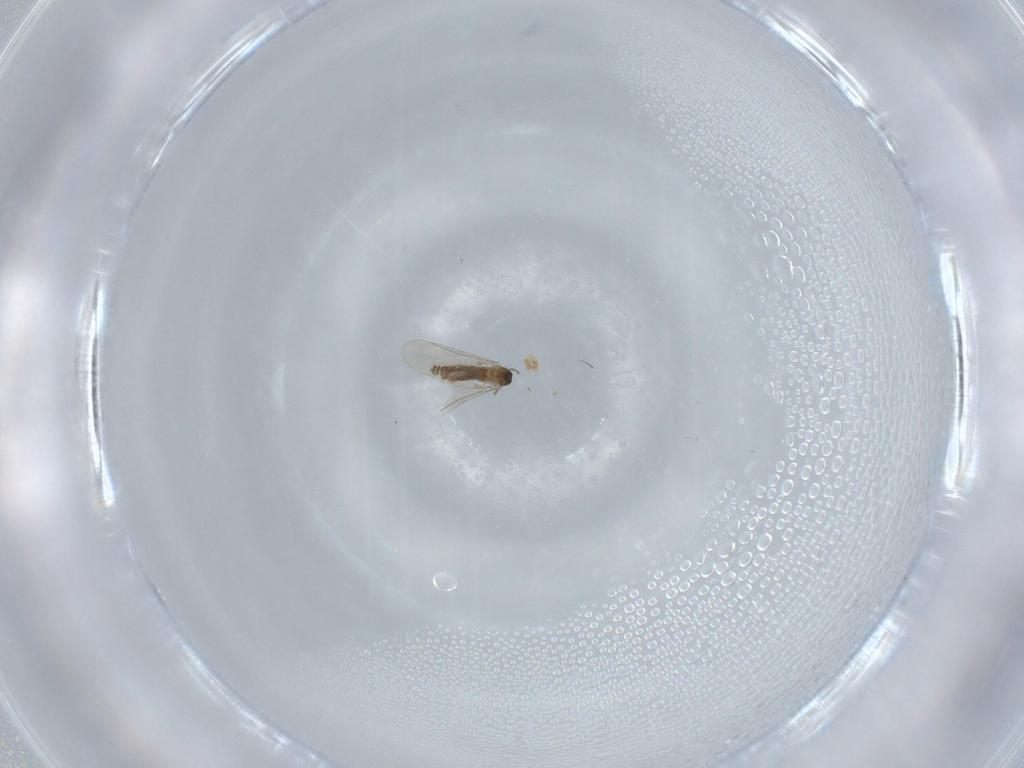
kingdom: Animalia
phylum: Arthropoda
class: Insecta
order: Diptera
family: Cecidomyiidae
